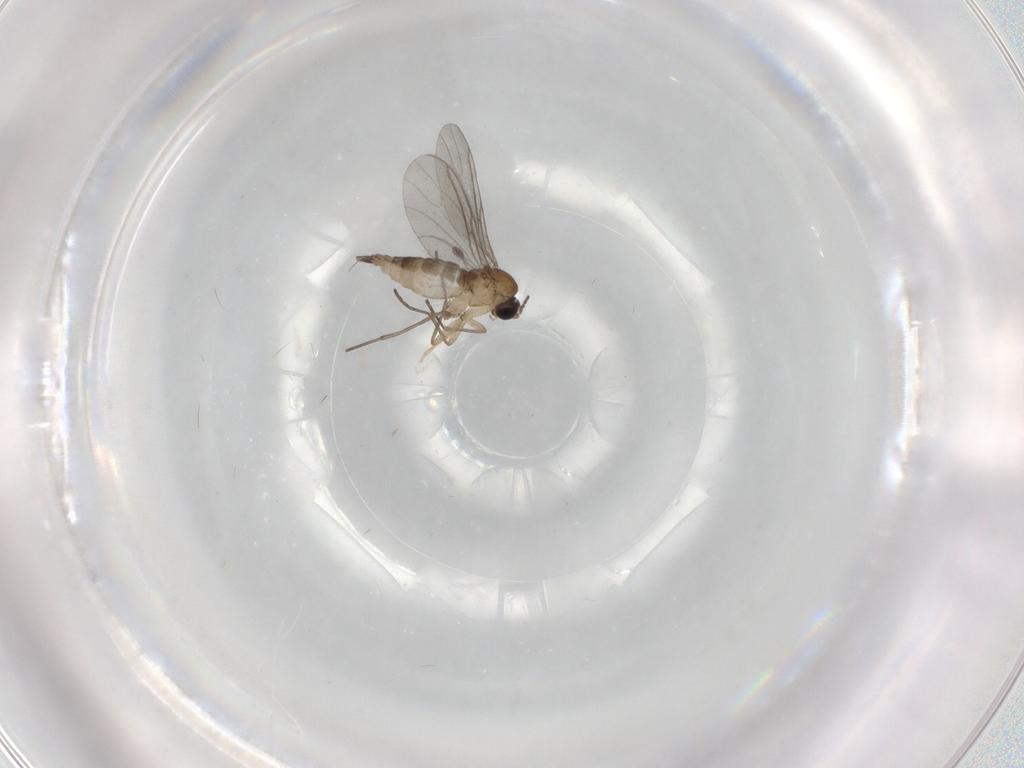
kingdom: Animalia
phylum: Arthropoda
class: Insecta
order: Diptera
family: Sciaridae
